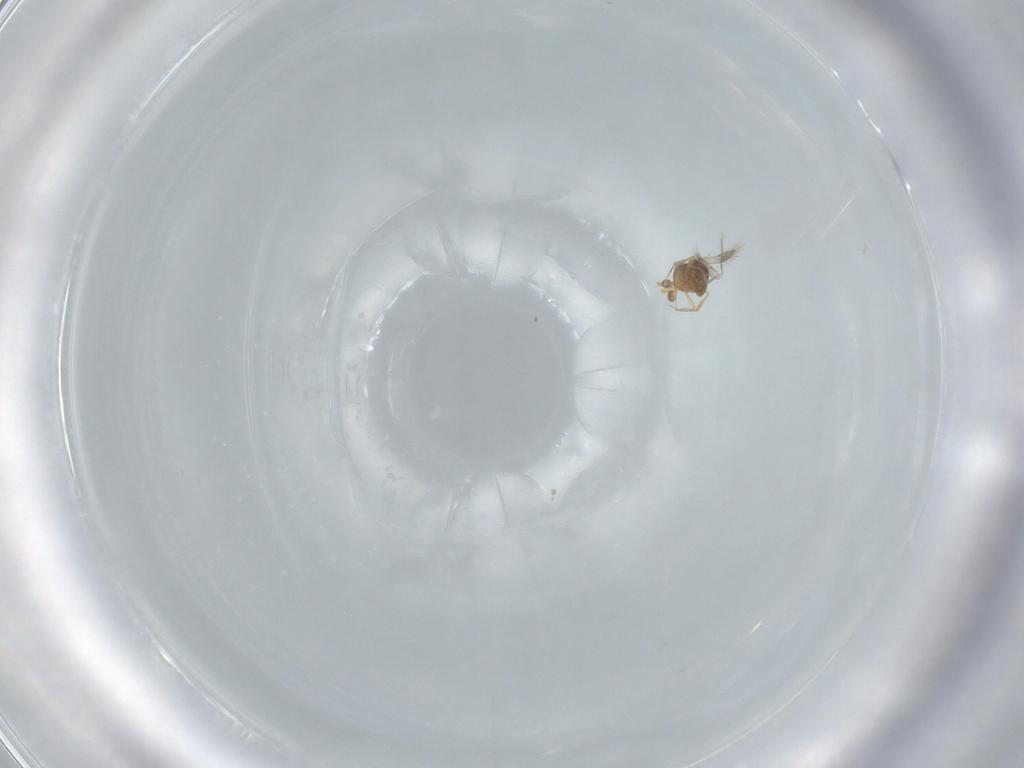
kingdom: Animalia
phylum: Arthropoda
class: Insecta
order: Hymenoptera
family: Scelionidae
